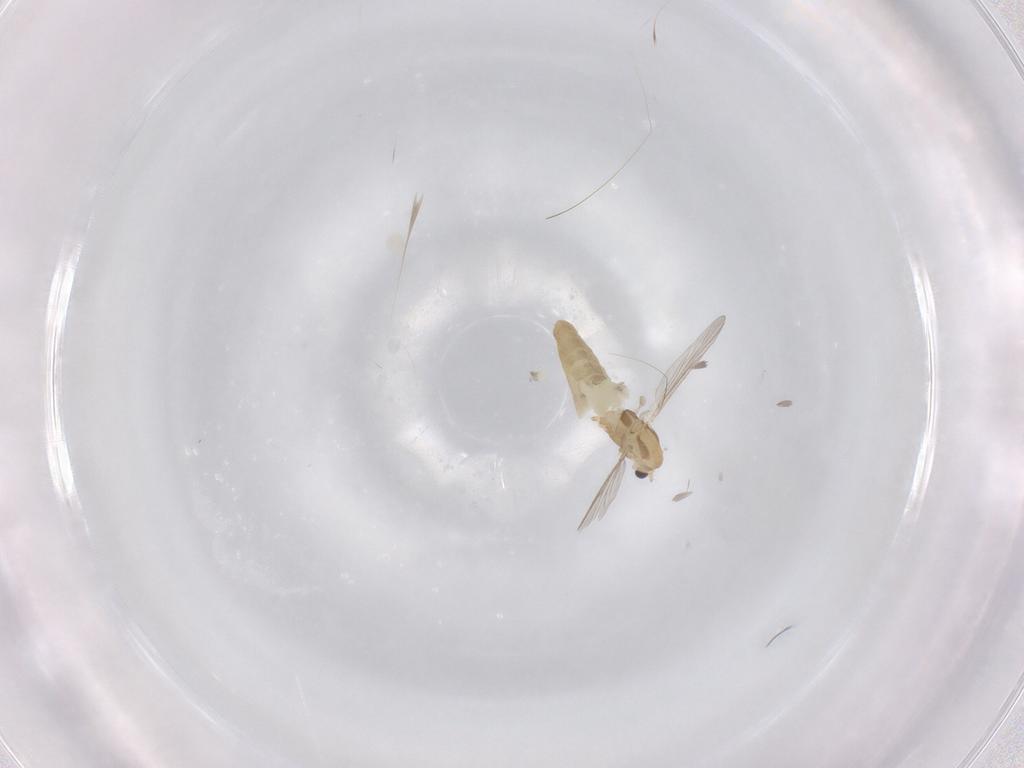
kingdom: Animalia
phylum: Arthropoda
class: Insecta
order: Diptera
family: Chironomidae
